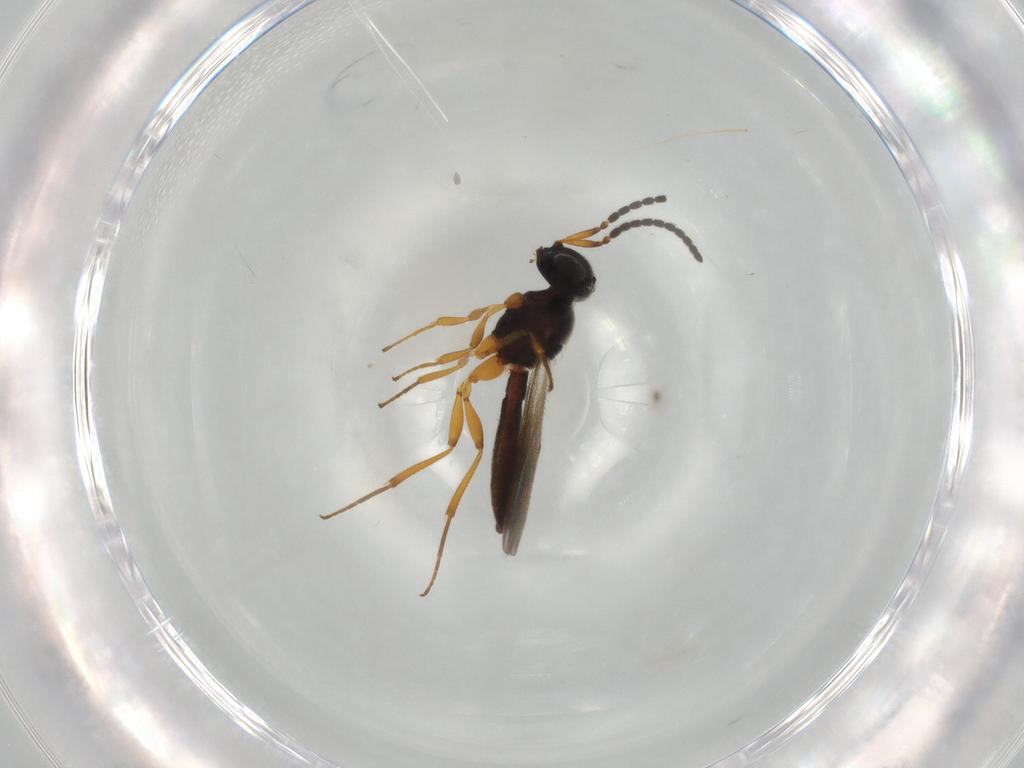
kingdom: Animalia
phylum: Arthropoda
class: Insecta
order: Hymenoptera
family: Scelionidae
